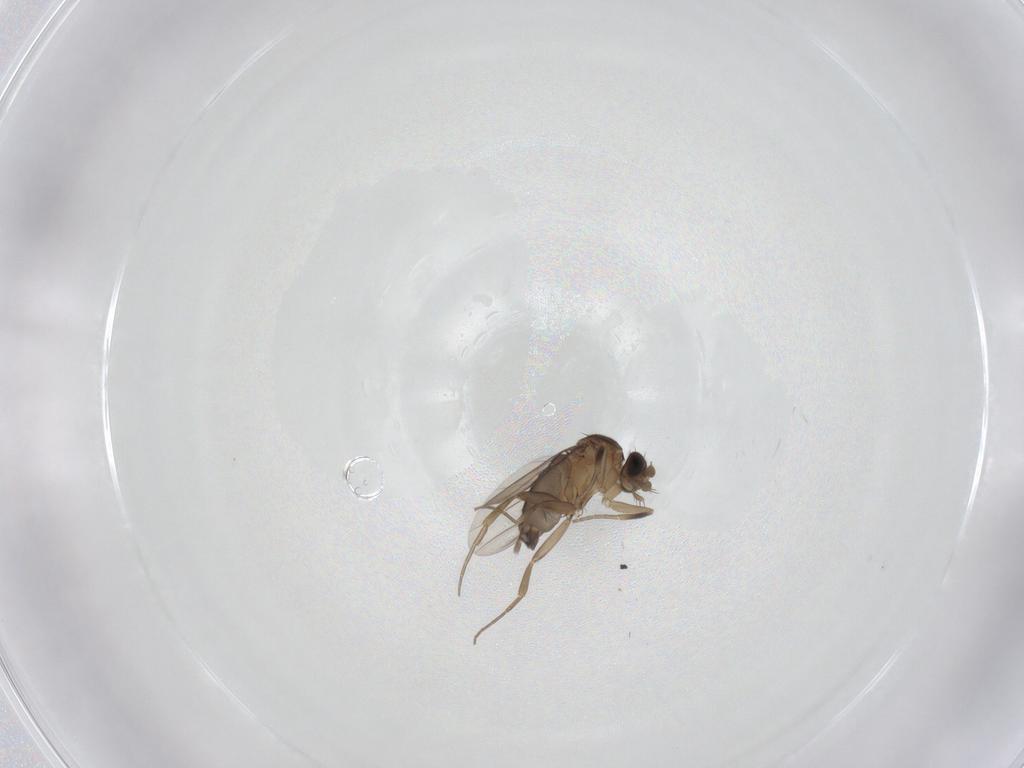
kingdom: Animalia
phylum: Arthropoda
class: Insecta
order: Diptera
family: Phoridae
